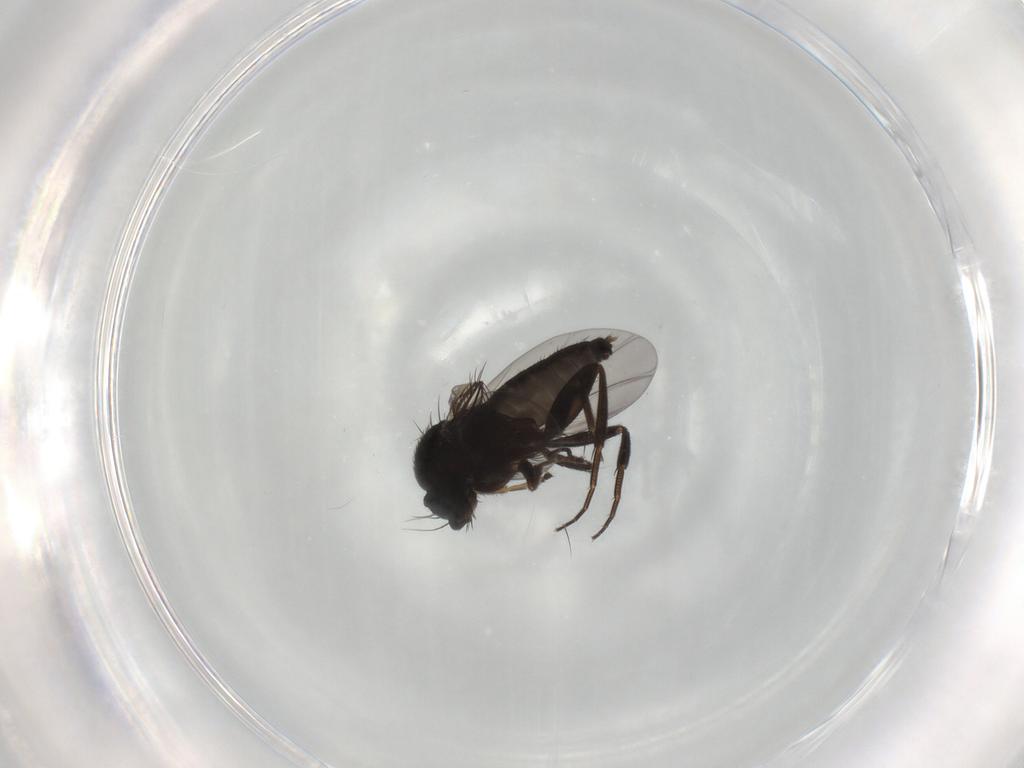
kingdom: Animalia
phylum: Arthropoda
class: Insecta
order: Diptera
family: Phoridae
